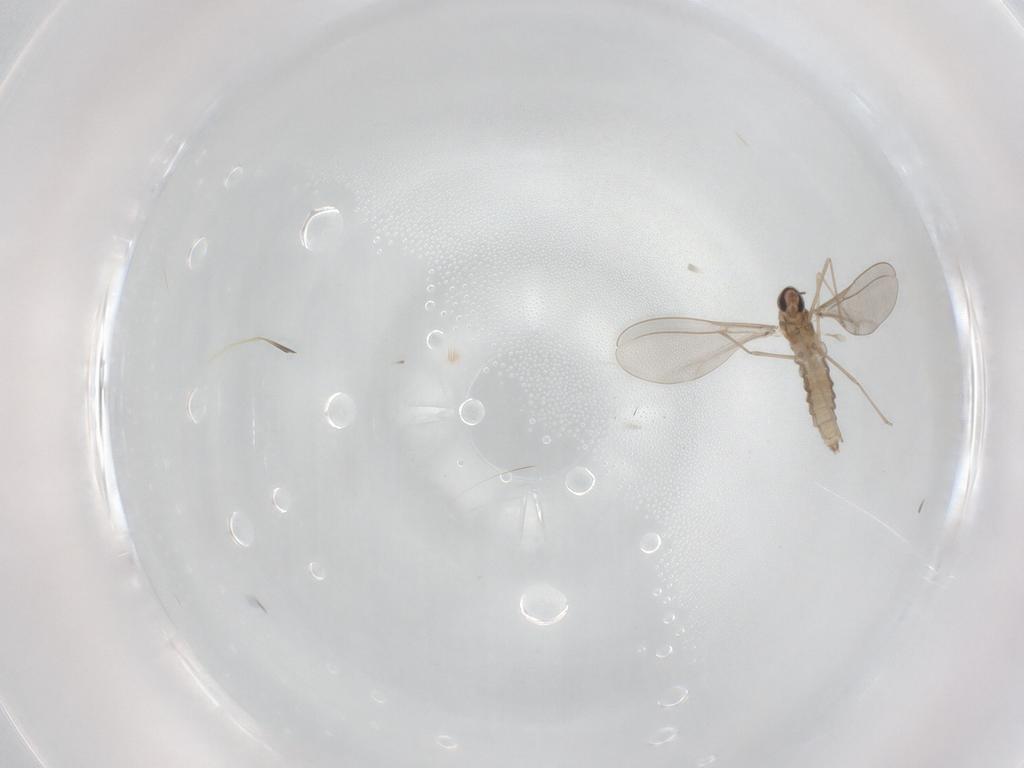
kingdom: Animalia
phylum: Arthropoda
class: Insecta
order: Diptera
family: Cecidomyiidae
